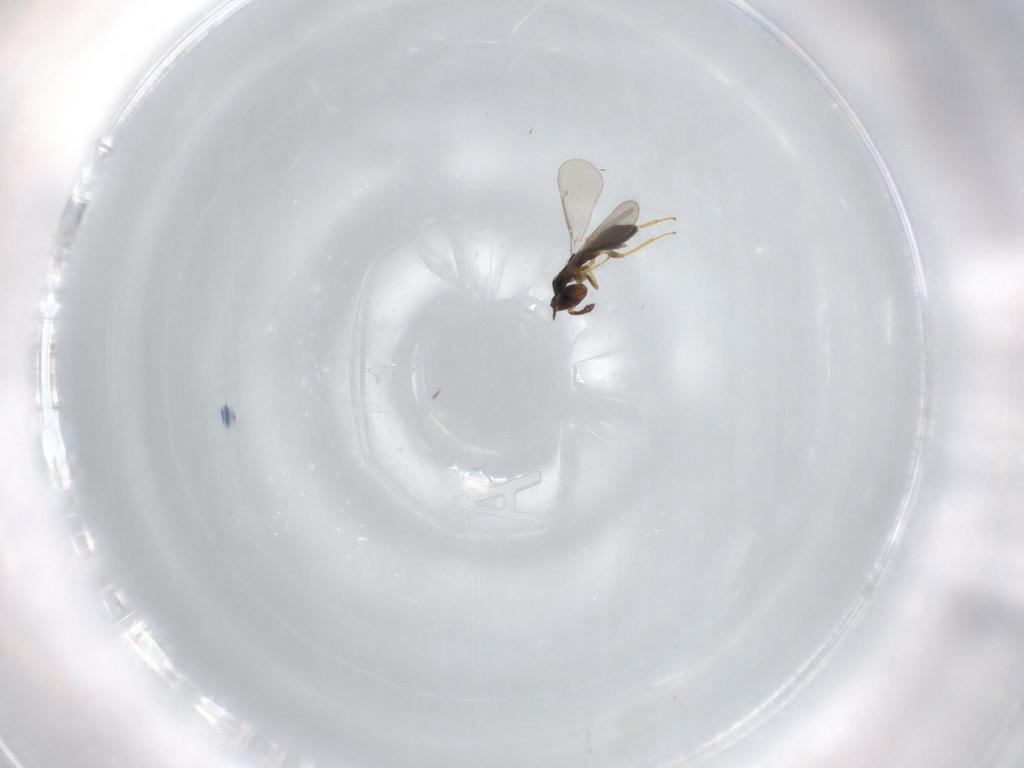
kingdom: Animalia
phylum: Arthropoda
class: Insecta
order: Hymenoptera
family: Eulophidae
